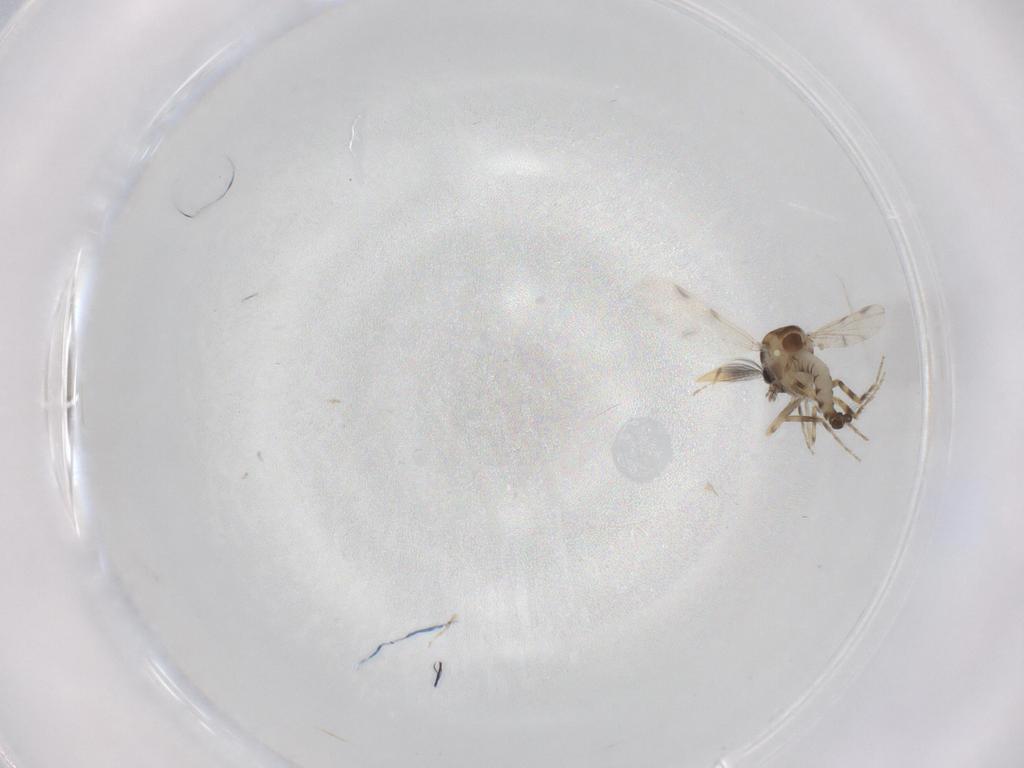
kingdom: Animalia
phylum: Arthropoda
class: Insecta
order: Diptera
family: Ceratopogonidae
